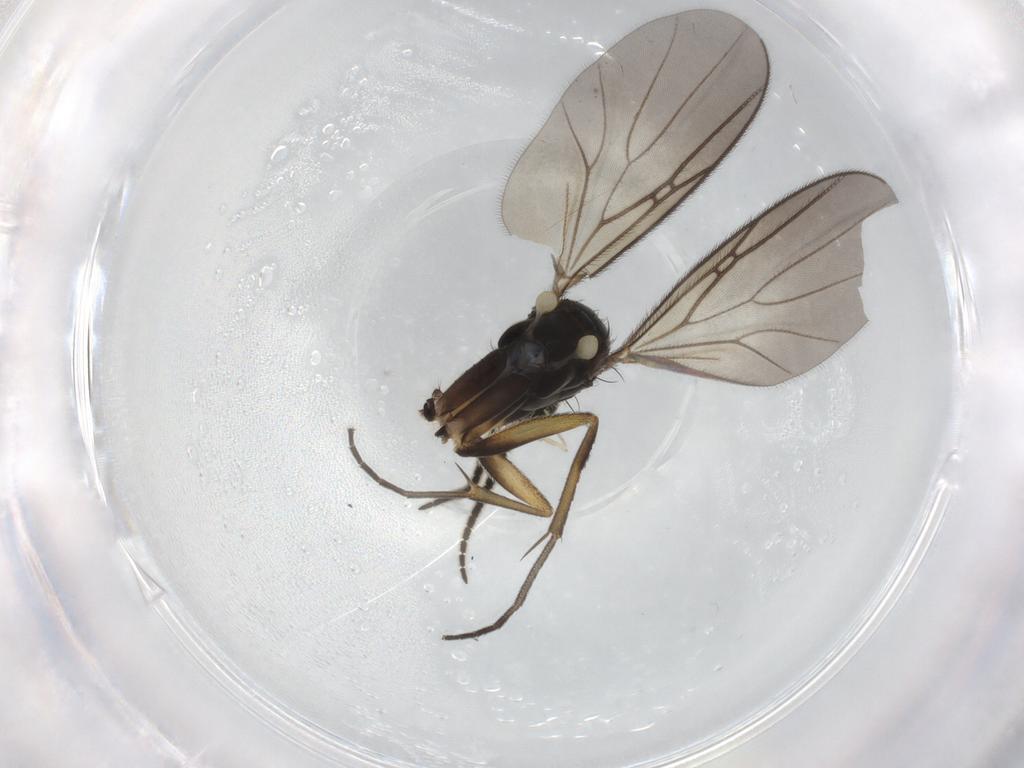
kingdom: Animalia
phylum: Arthropoda
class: Insecta
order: Diptera
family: Mycetophilidae
